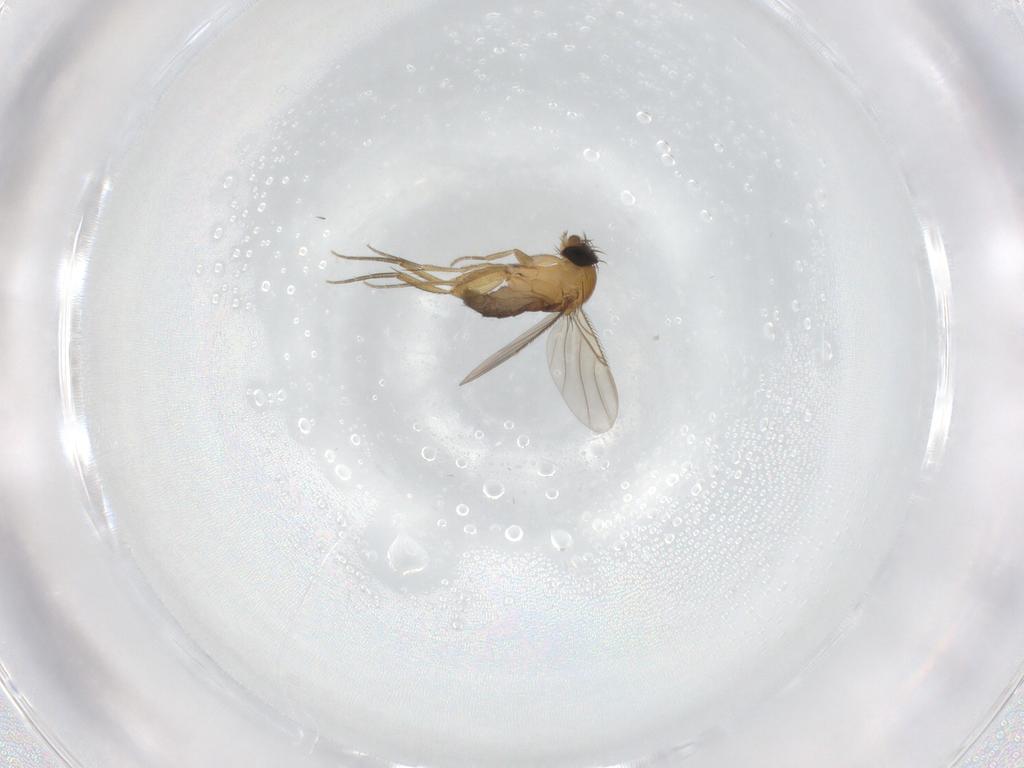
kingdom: Animalia
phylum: Arthropoda
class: Insecta
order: Diptera
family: Phoridae
